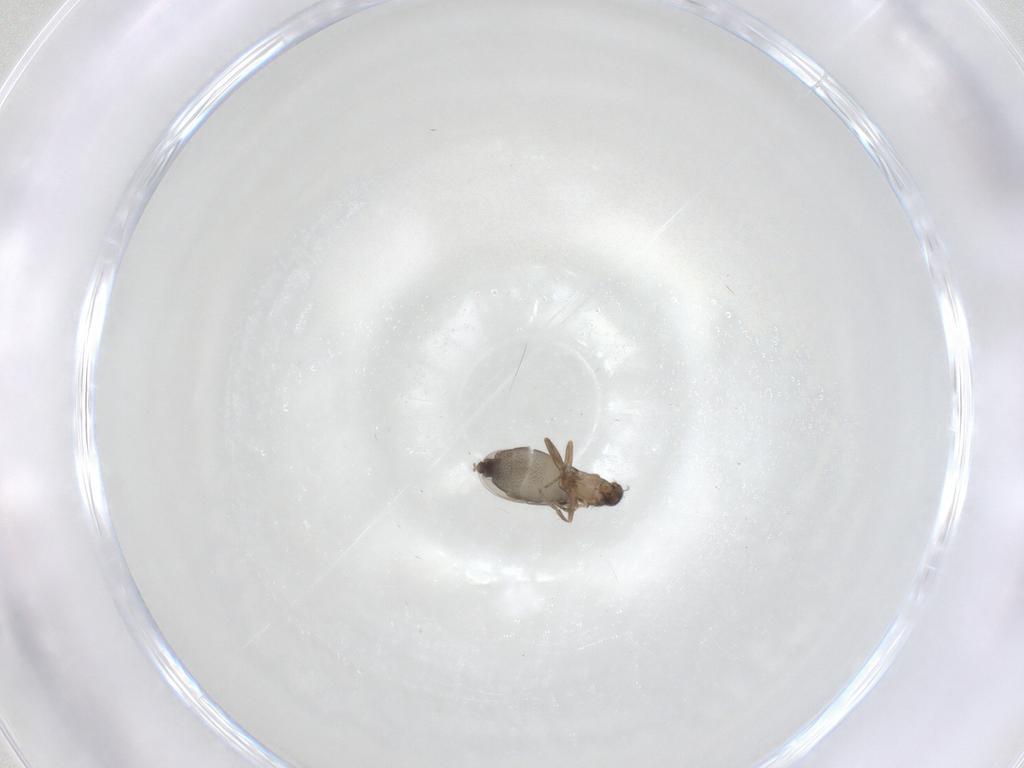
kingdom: Animalia
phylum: Arthropoda
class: Insecta
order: Diptera
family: Phoridae
